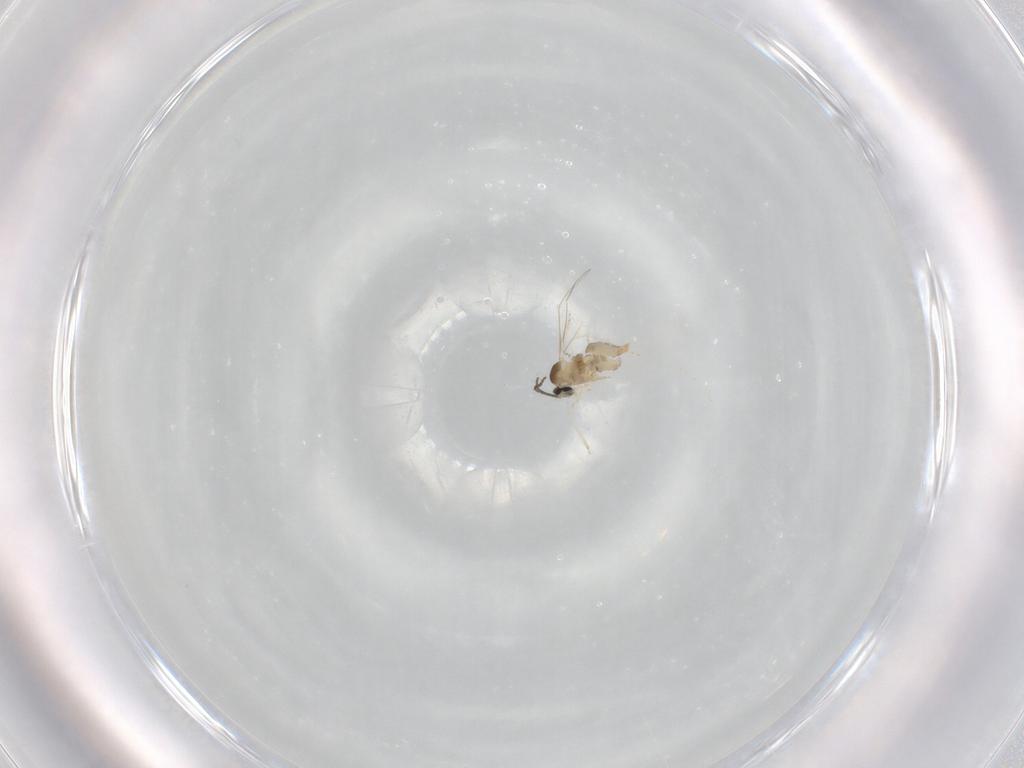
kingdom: Animalia
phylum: Arthropoda
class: Insecta
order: Diptera
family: Cecidomyiidae
